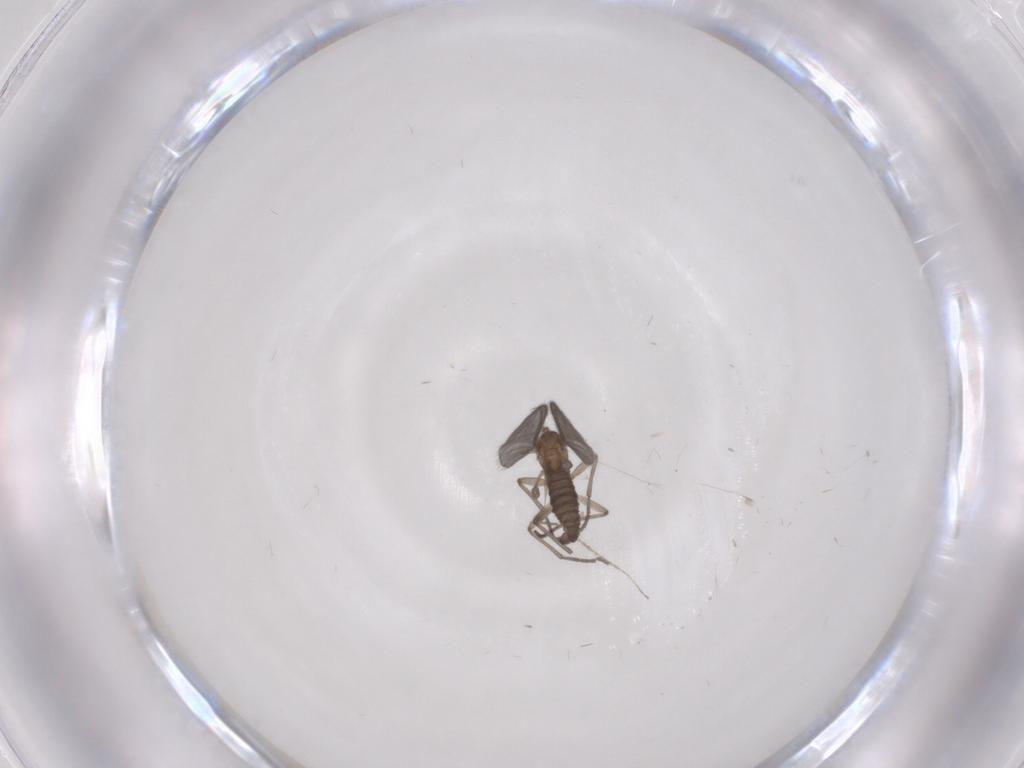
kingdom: Animalia
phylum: Arthropoda
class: Insecta
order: Diptera
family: Sciaridae
